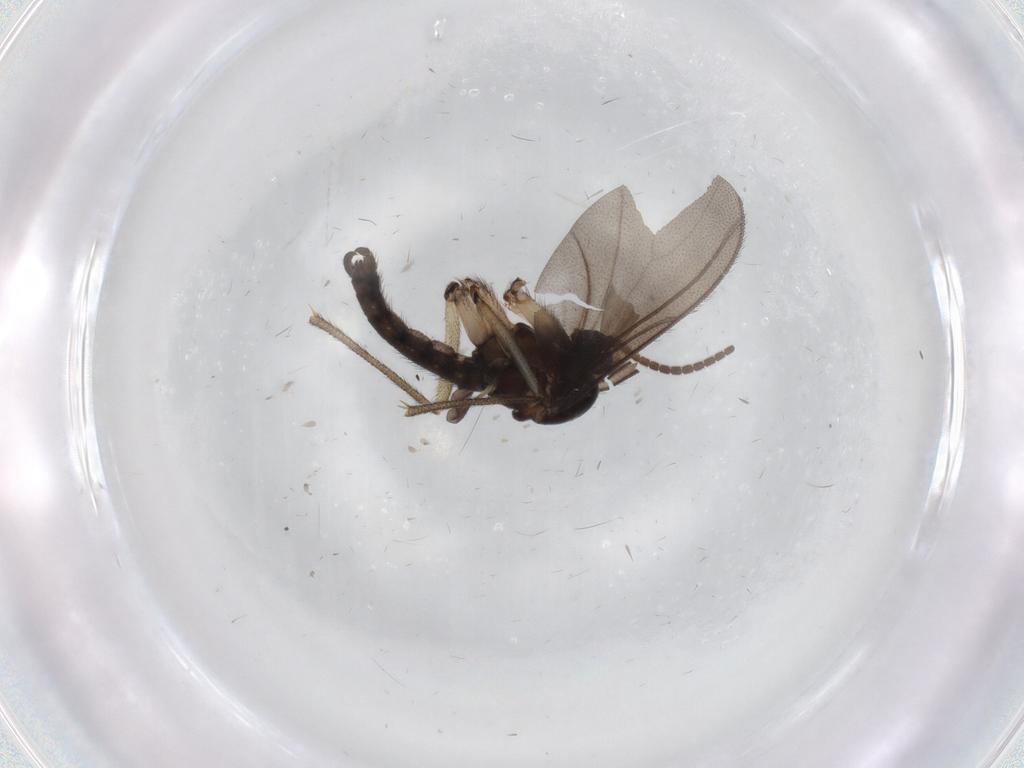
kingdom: Animalia
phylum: Arthropoda
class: Insecta
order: Diptera
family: Sciaridae
